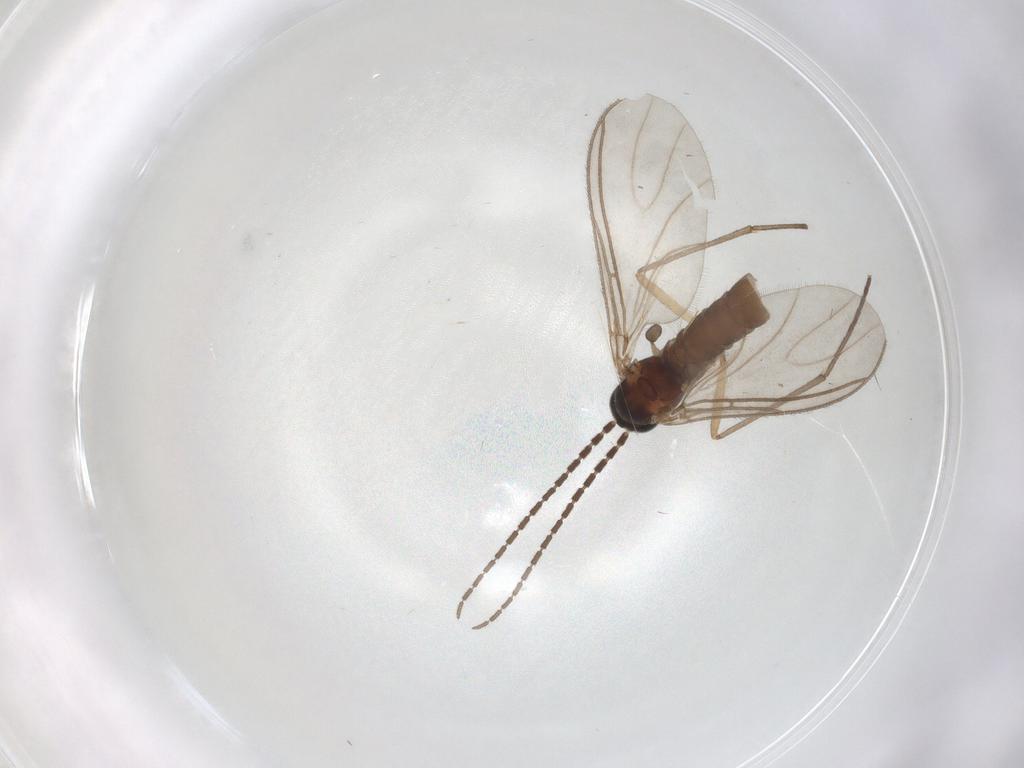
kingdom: Animalia
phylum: Arthropoda
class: Insecta
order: Diptera
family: Sciaridae
